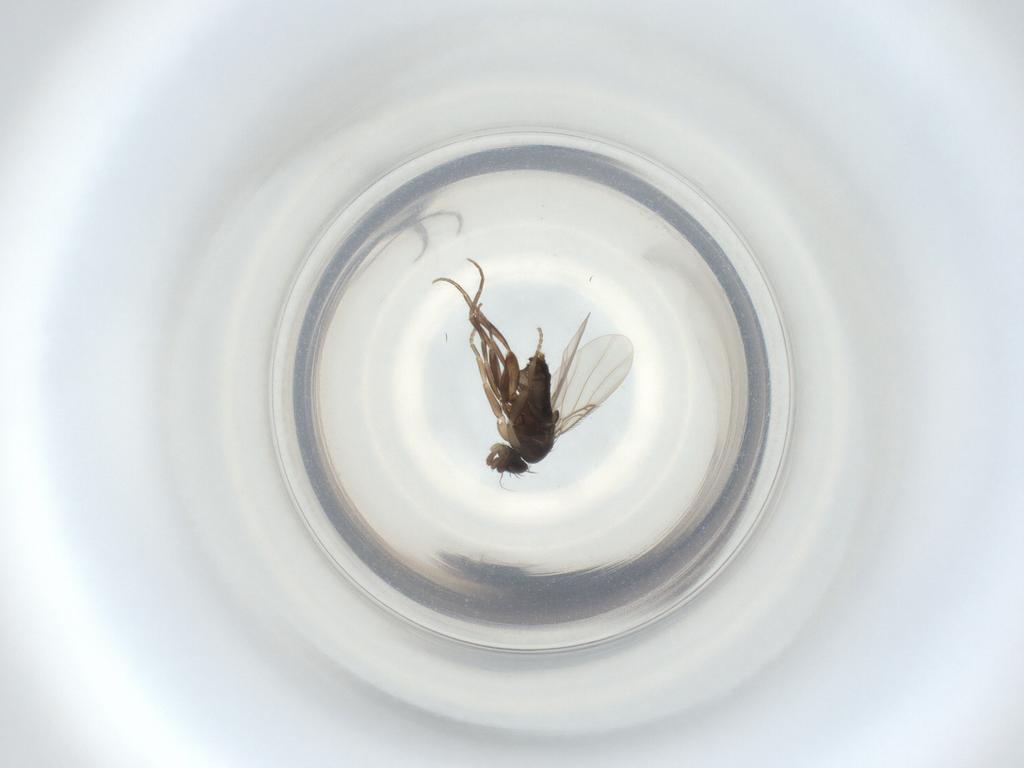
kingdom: Animalia
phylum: Arthropoda
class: Insecta
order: Diptera
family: Phoridae
